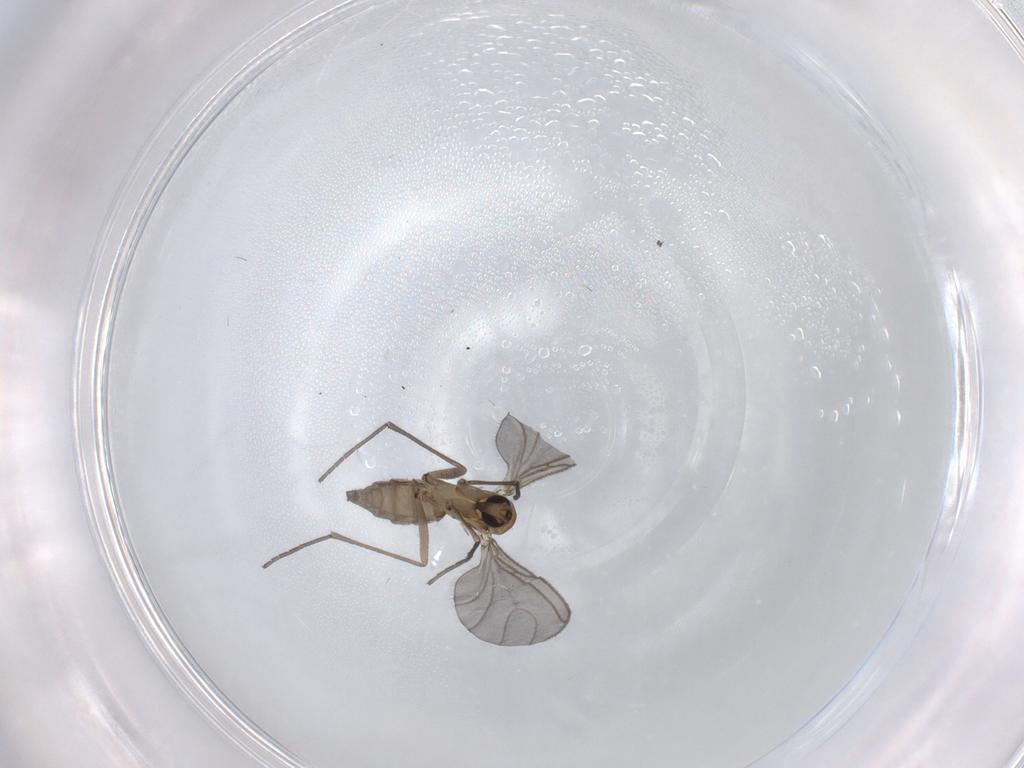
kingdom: Animalia
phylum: Arthropoda
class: Insecta
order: Diptera
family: Sciaridae
